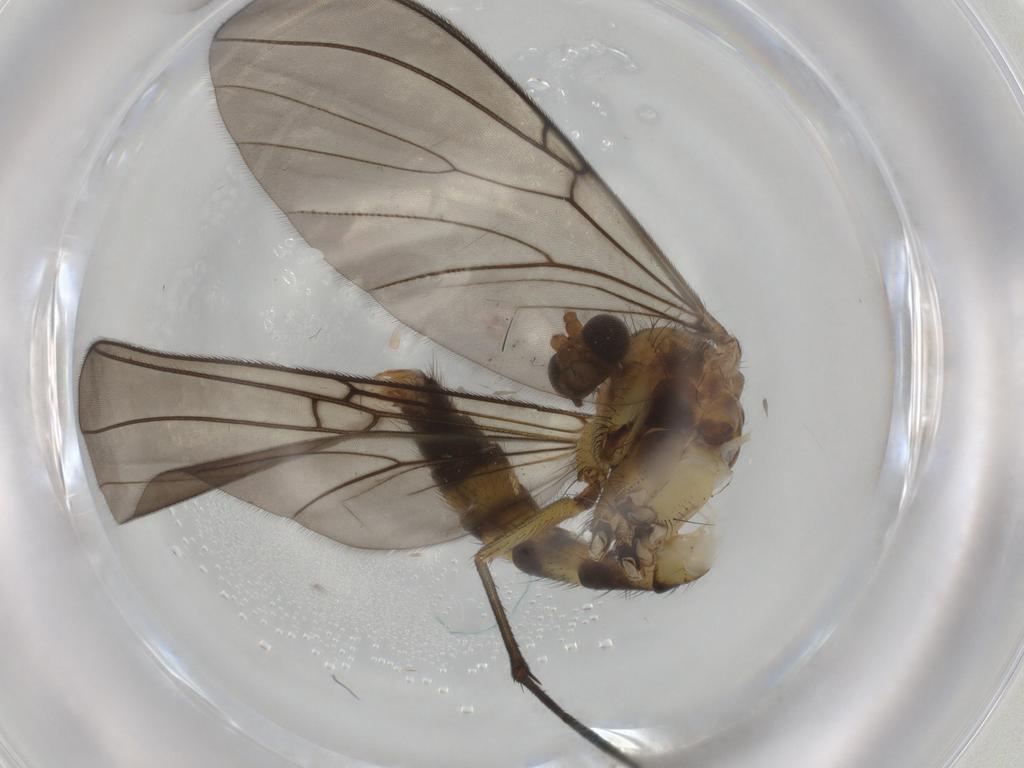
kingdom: Animalia
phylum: Arthropoda
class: Insecta
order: Diptera
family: Mycetophilidae
